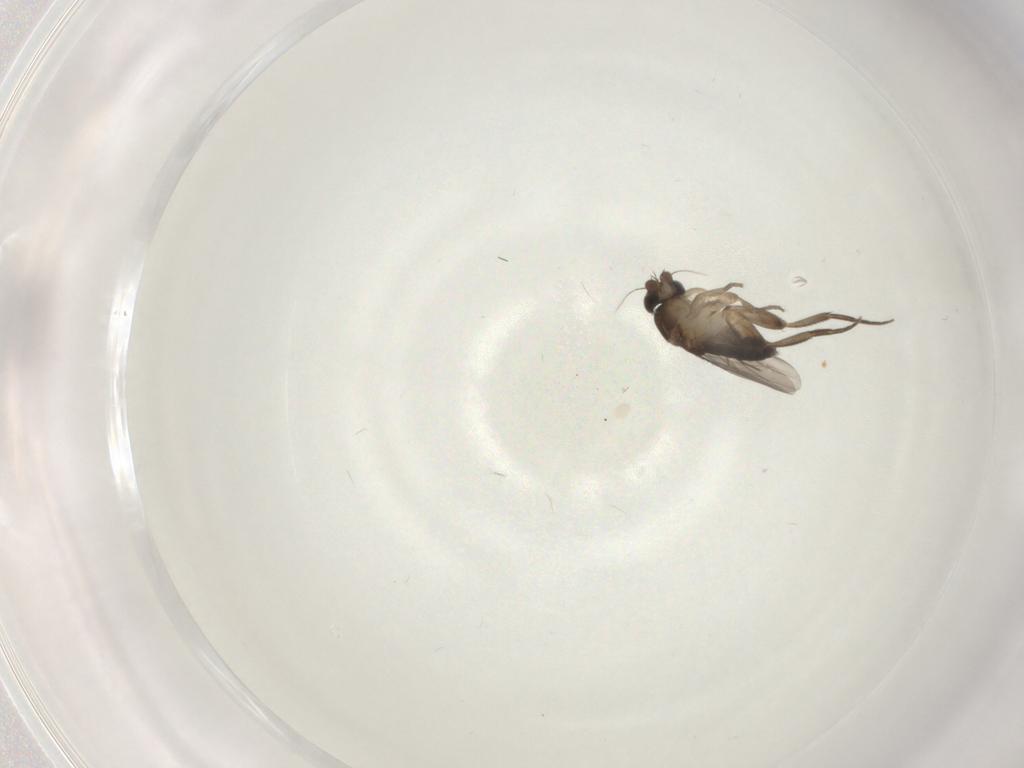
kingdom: Animalia
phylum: Arthropoda
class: Insecta
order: Diptera
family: Phoridae
